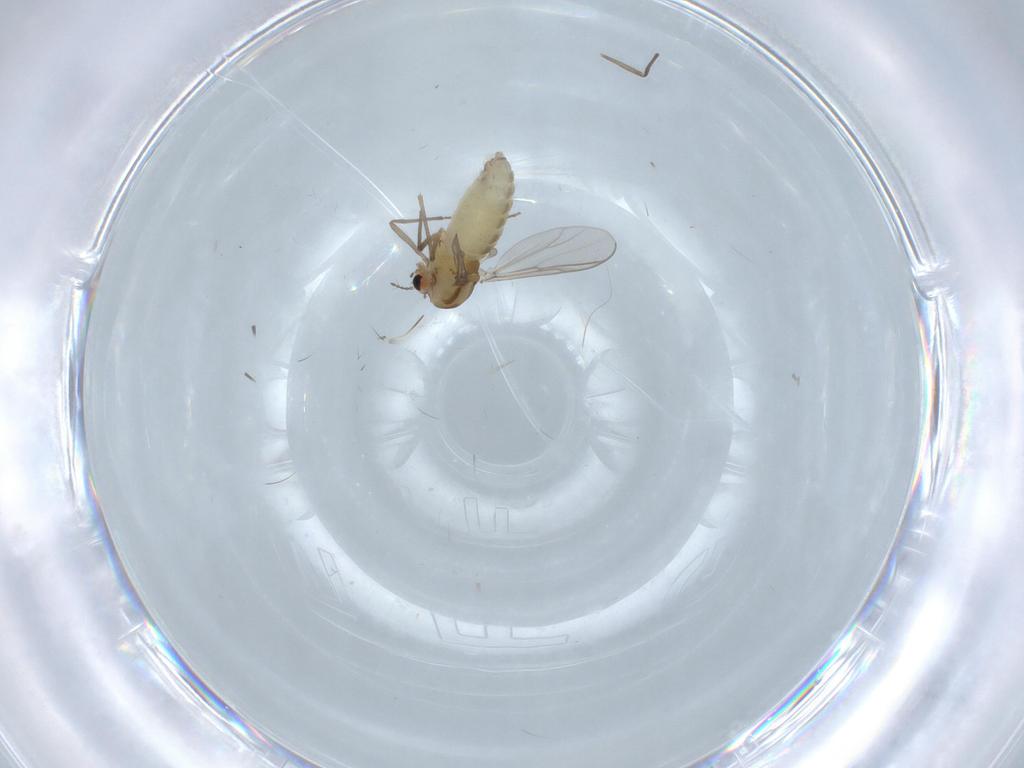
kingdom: Animalia
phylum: Arthropoda
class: Insecta
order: Diptera
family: Chironomidae
